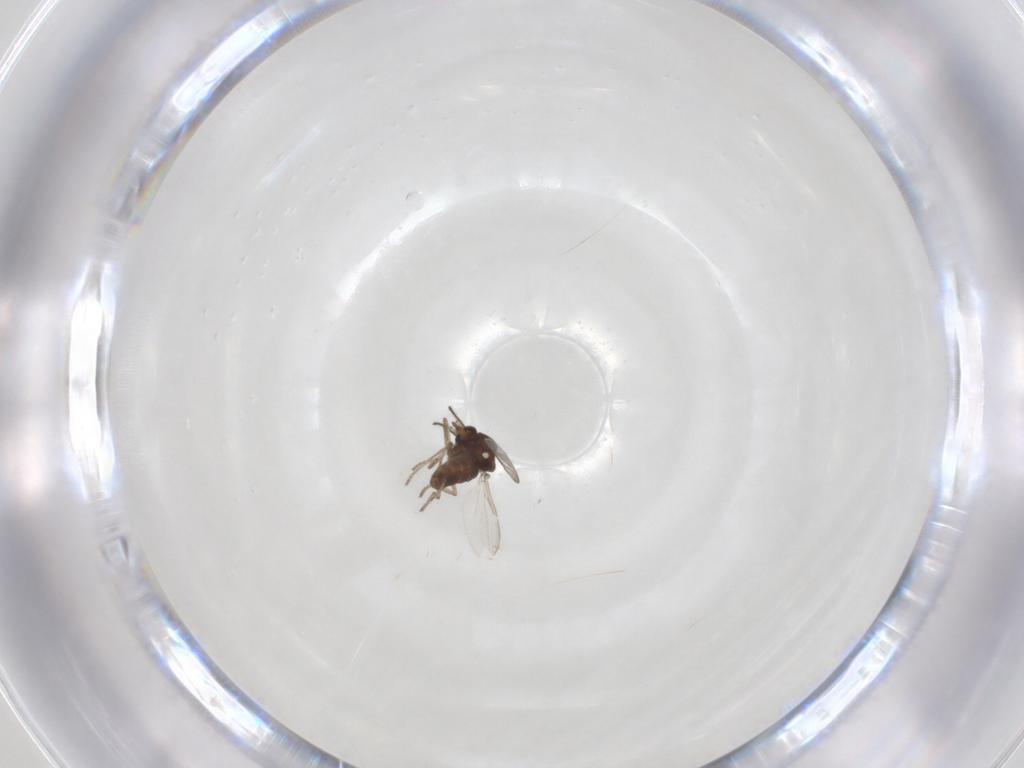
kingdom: Animalia
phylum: Arthropoda
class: Insecta
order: Diptera
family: Ceratopogonidae
